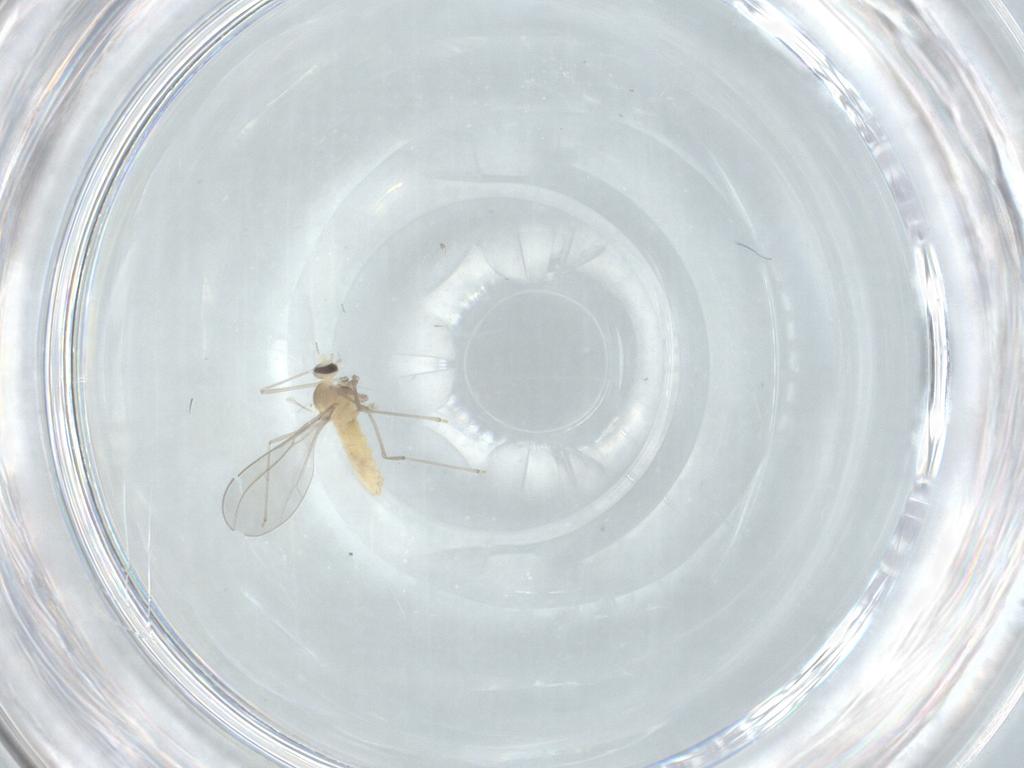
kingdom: Animalia
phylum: Arthropoda
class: Insecta
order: Diptera
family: Cecidomyiidae
